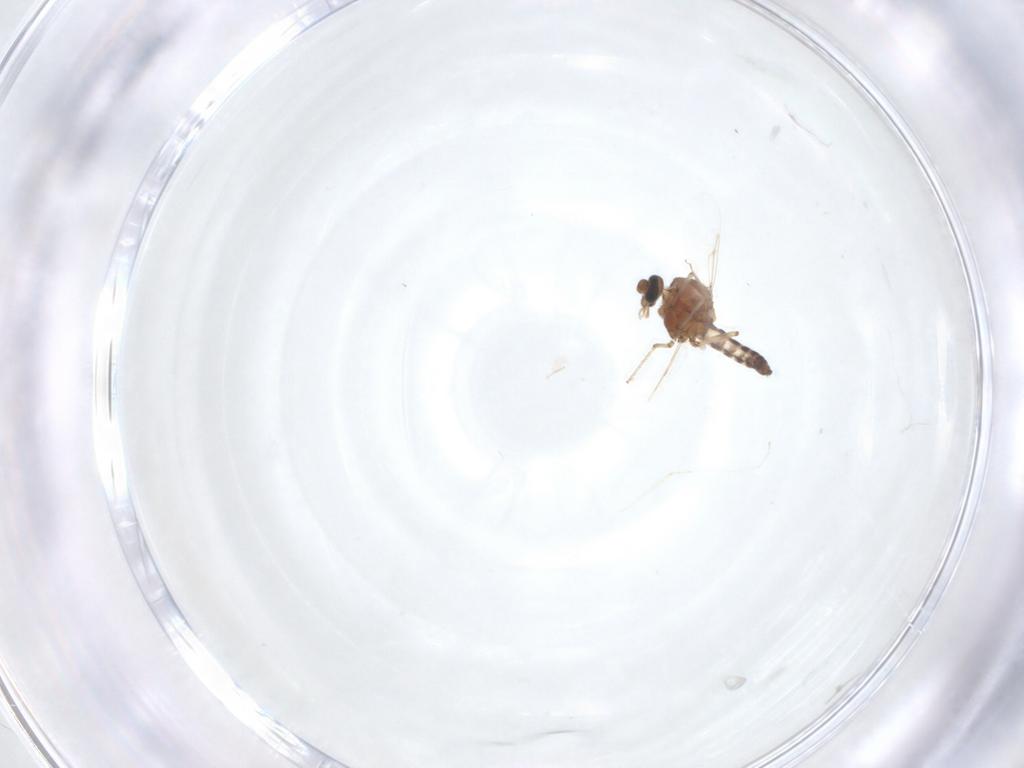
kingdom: Animalia
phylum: Arthropoda
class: Insecta
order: Diptera
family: Ceratopogonidae
